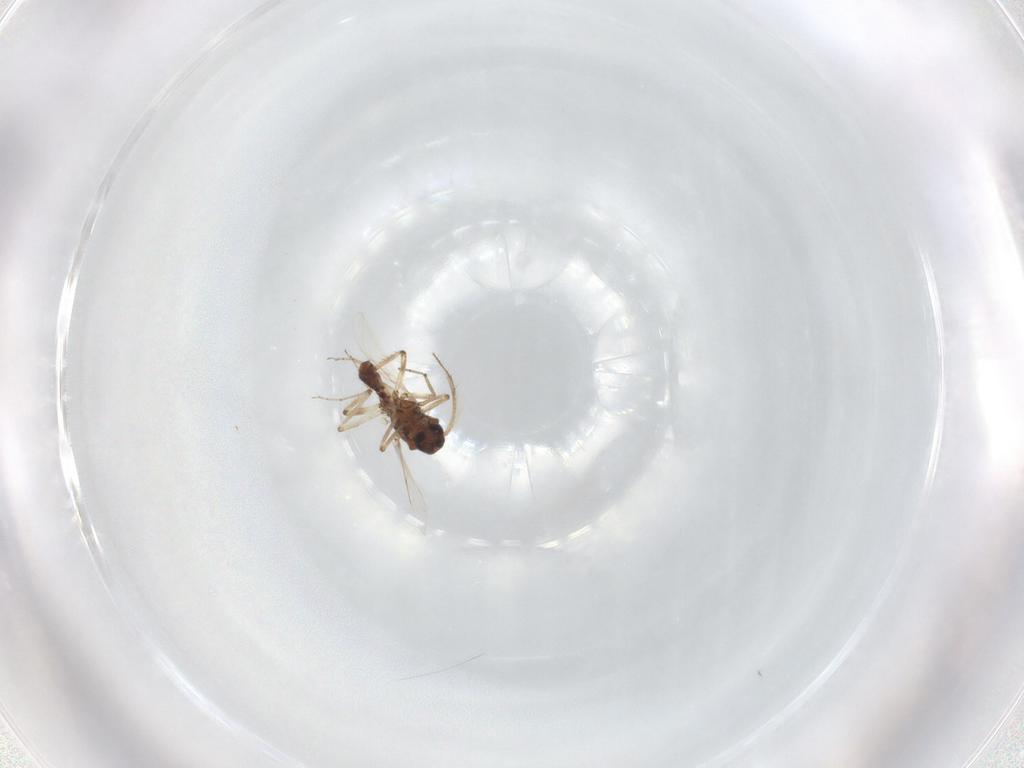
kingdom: Animalia
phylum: Arthropoda
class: Insecta
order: Diptera
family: Ceratopogonidae
